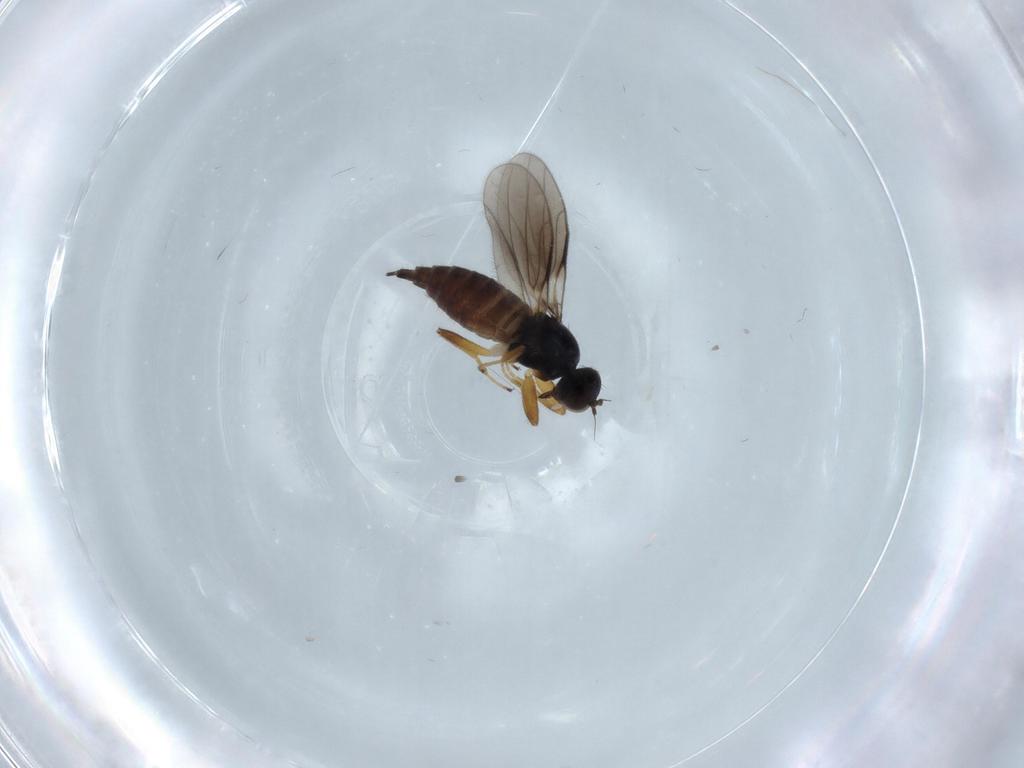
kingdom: Animalia
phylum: Arthropoda
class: Insecta
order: Diptera
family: Hybotidae
